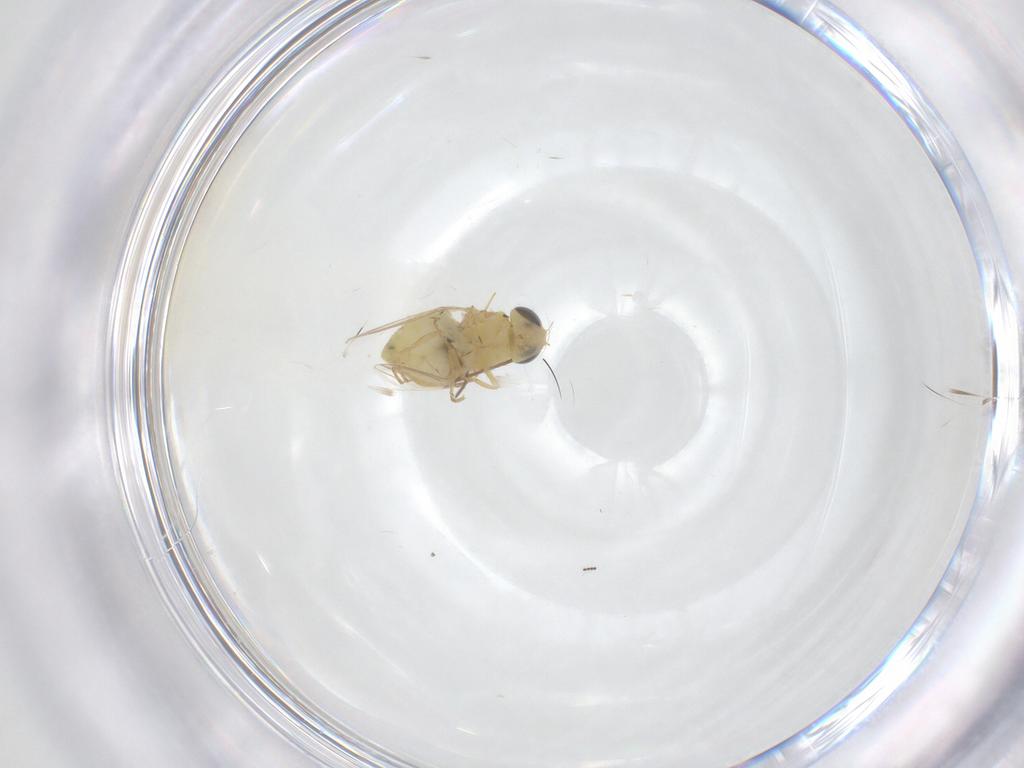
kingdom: Animalia
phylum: Arthropoda
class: Insecta
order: Diptera
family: Chyromyidae
